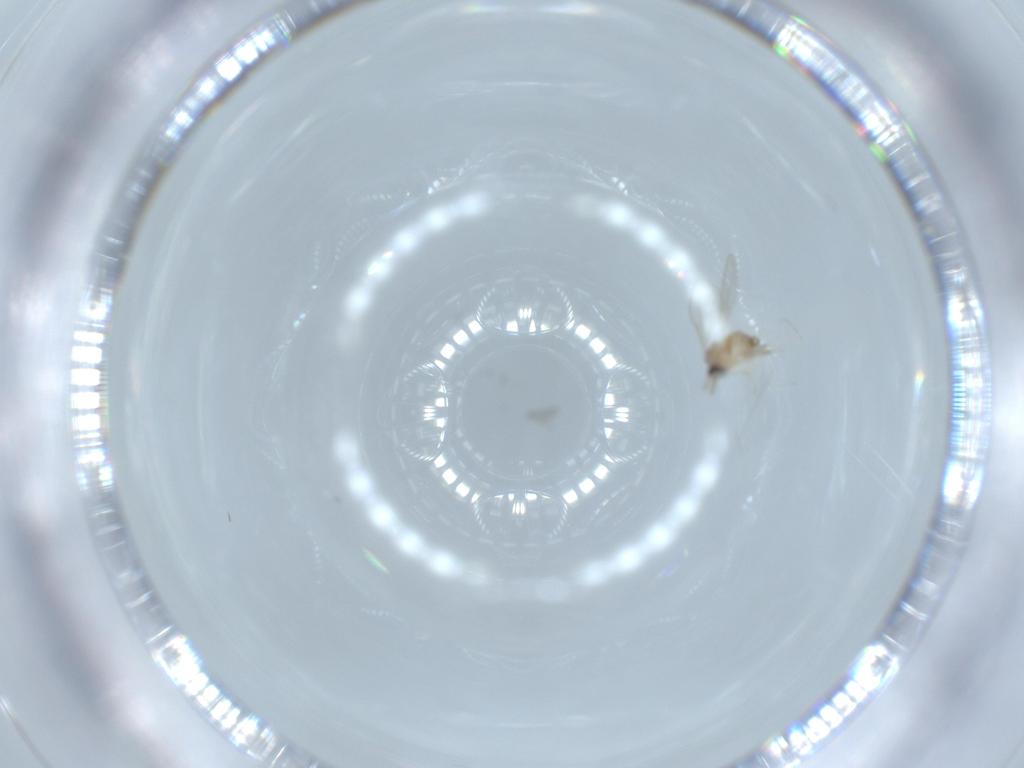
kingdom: Animalia
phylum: Arthropoda
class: Insecta
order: Diptera
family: Cecidomyiidae
